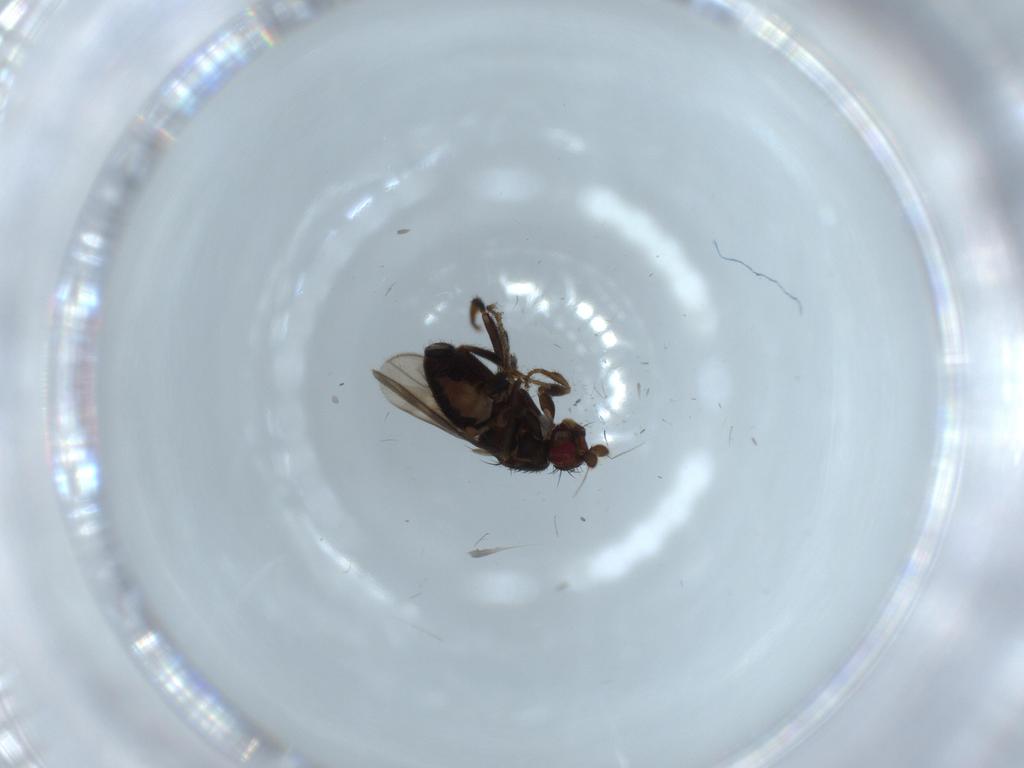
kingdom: Animalia
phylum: Arthropoda
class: Insecta
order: Diptera
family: Sphaeroceridae
